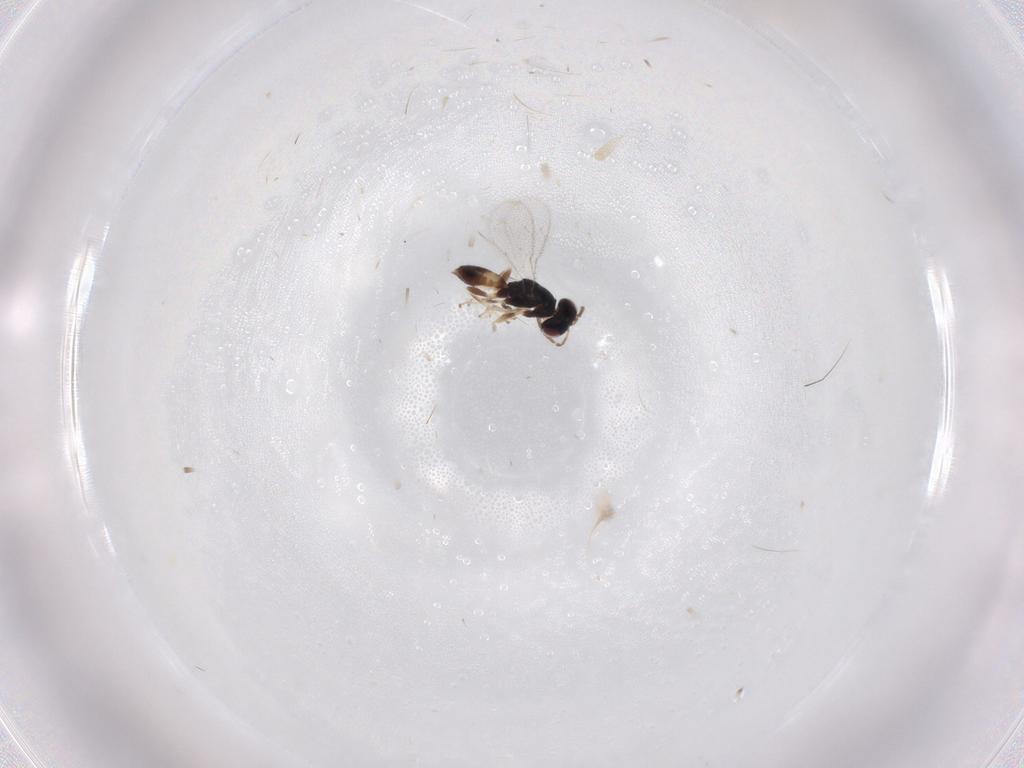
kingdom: Animalia
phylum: Arthropoda
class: Insecta
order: Hymenoptera
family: Pteromalidae
